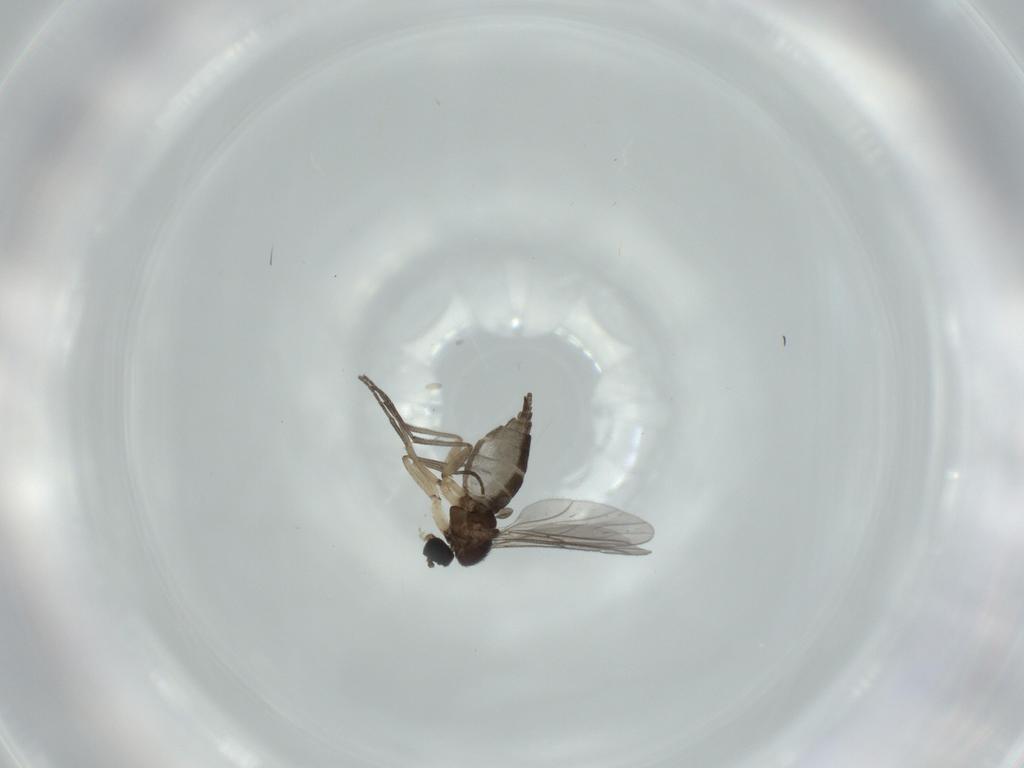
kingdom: Animalia
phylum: Arthropoda
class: Insecta
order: Diptera
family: Sciaridae
